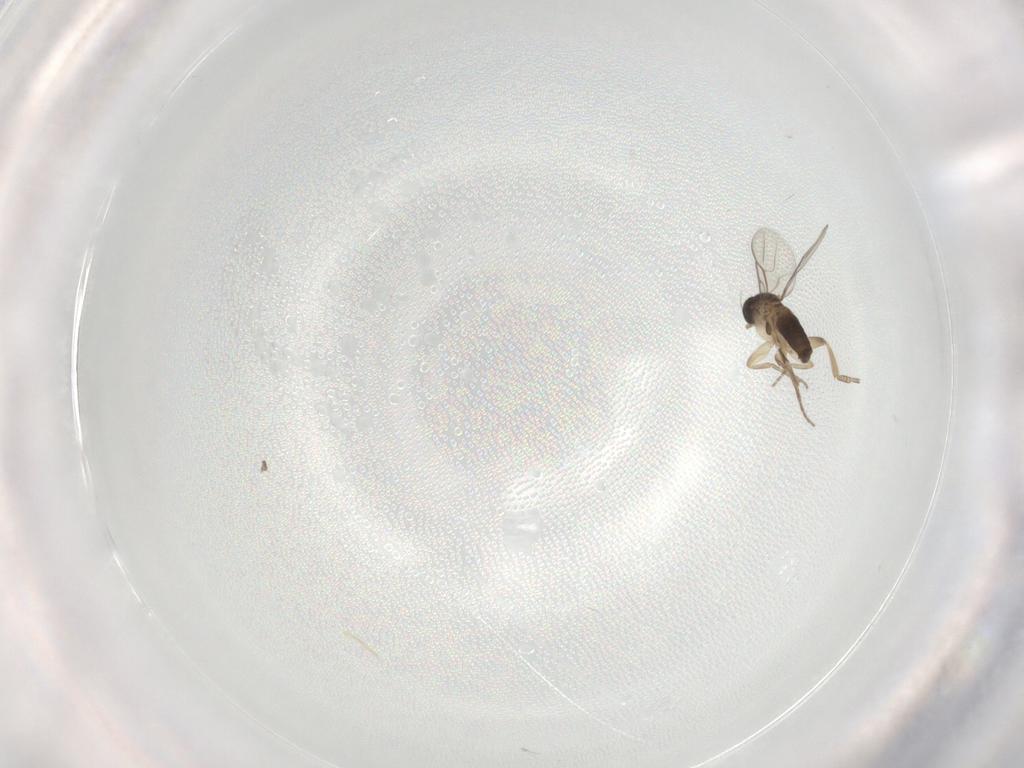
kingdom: Animalia
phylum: Arthropoda
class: Insecta
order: Diptera
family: Phoridae
